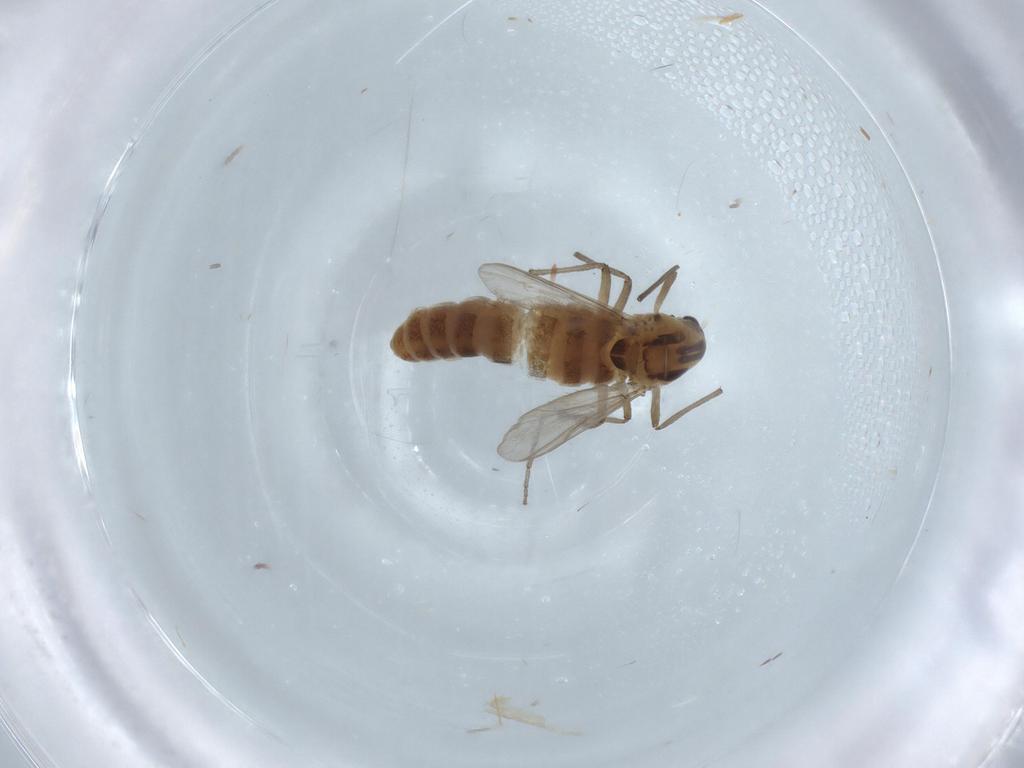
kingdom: Animalia
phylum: Arthropoda
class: Insecta
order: Diptera
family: Chironomidae
